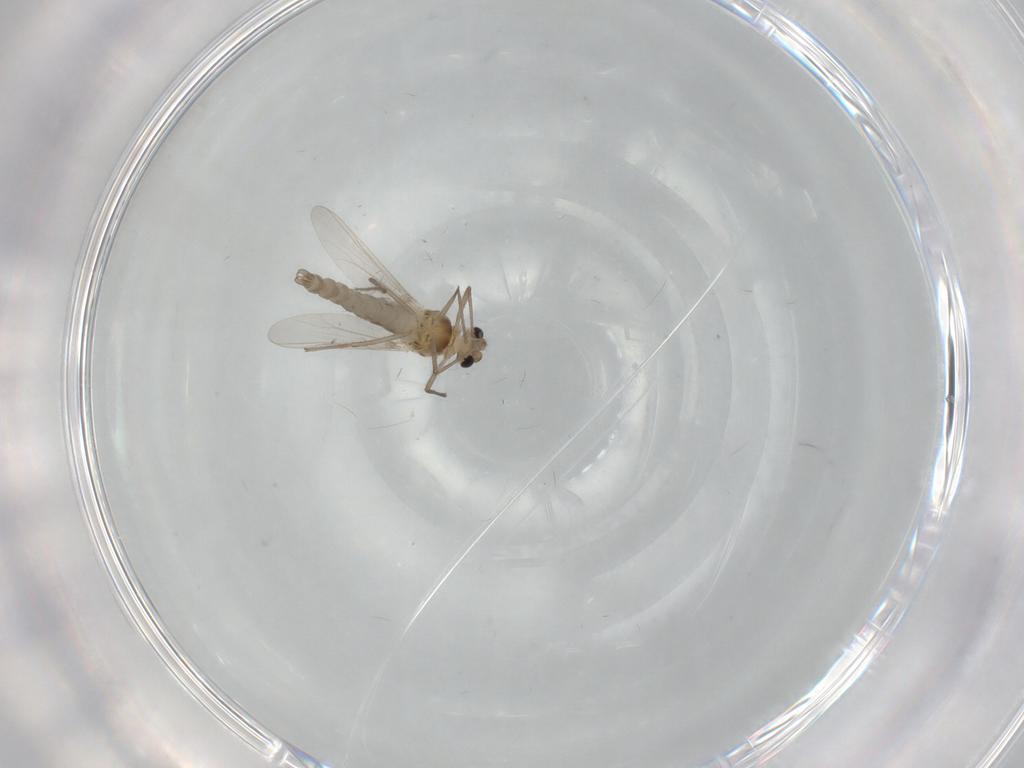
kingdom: Animalia
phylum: Arthropoda
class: Insecta
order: Diptera
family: Chironomidae
